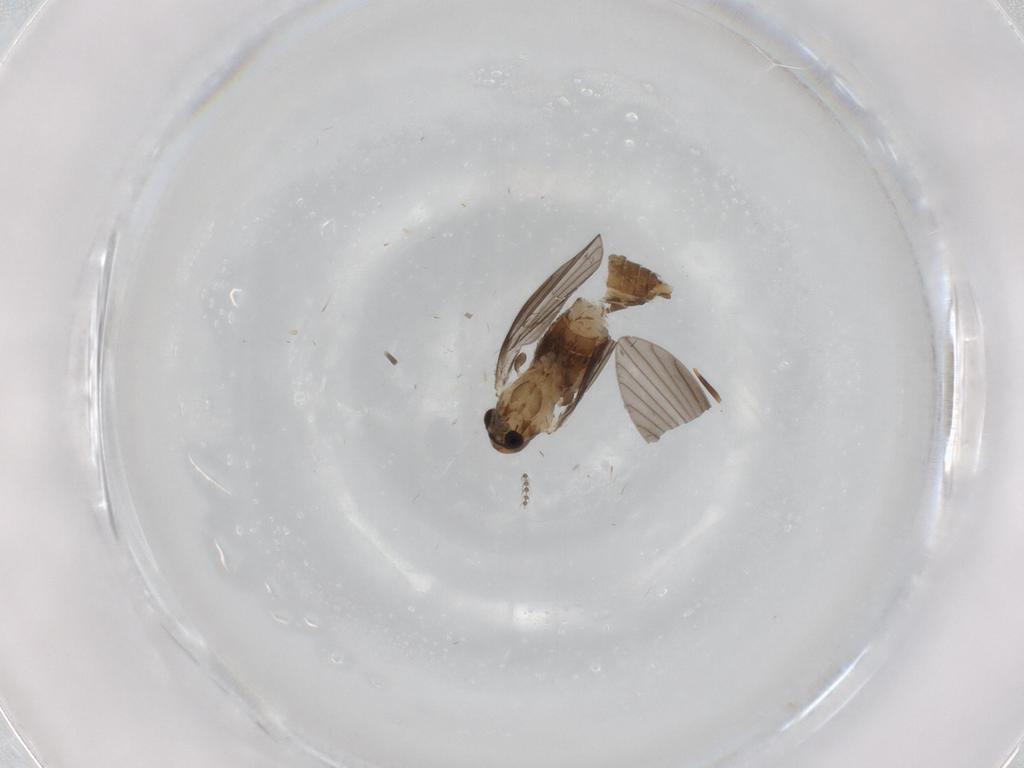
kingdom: Animalia
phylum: Arthropoda
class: Insecta
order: Diptera
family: Cecidomyiidae
